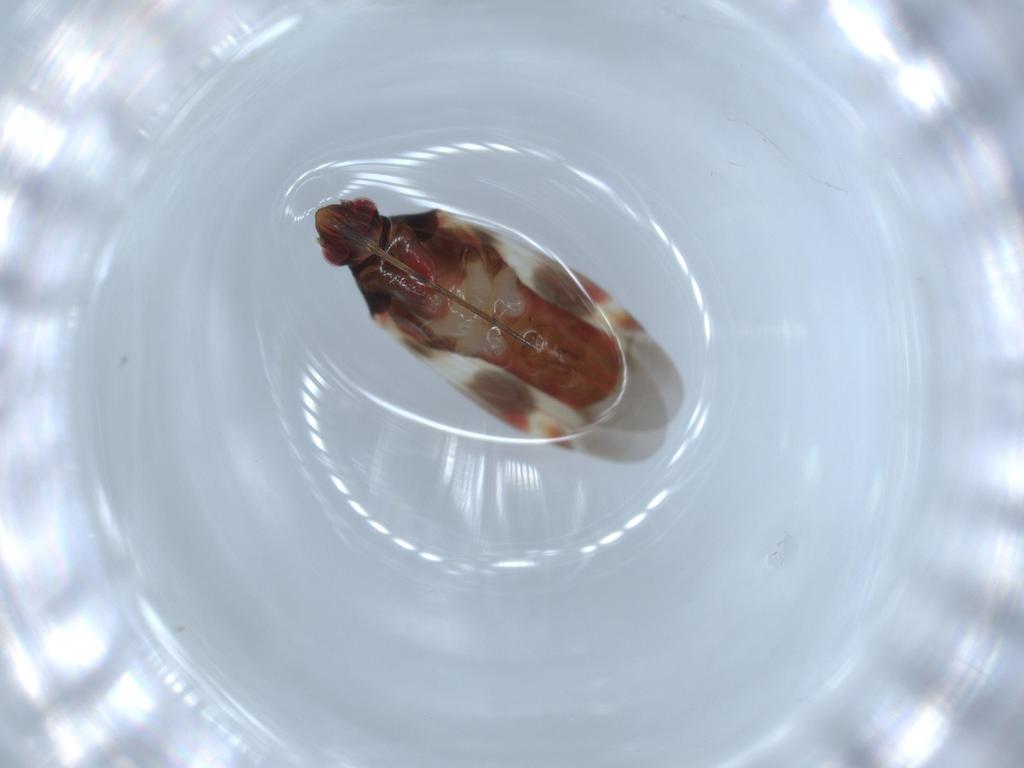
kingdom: Animalia
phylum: Arthropoda
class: Insecta
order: Hemiptera
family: Miridae
